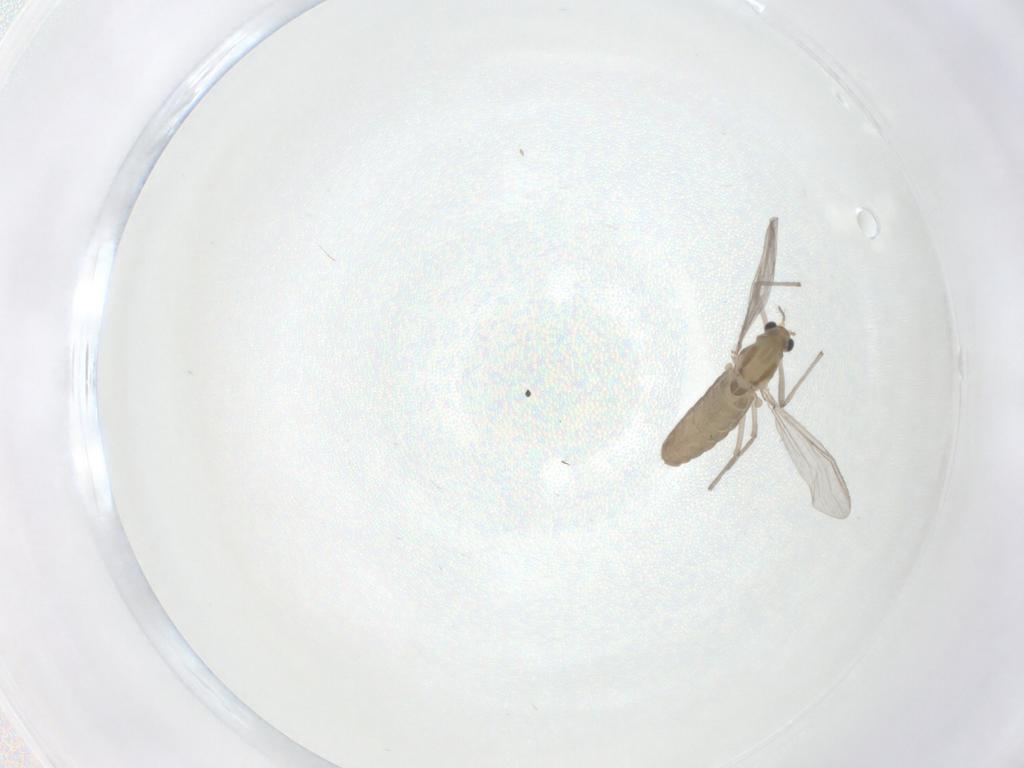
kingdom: Animalia
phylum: Arthropoda
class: Insecta
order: Diptera
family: Chironomidae
